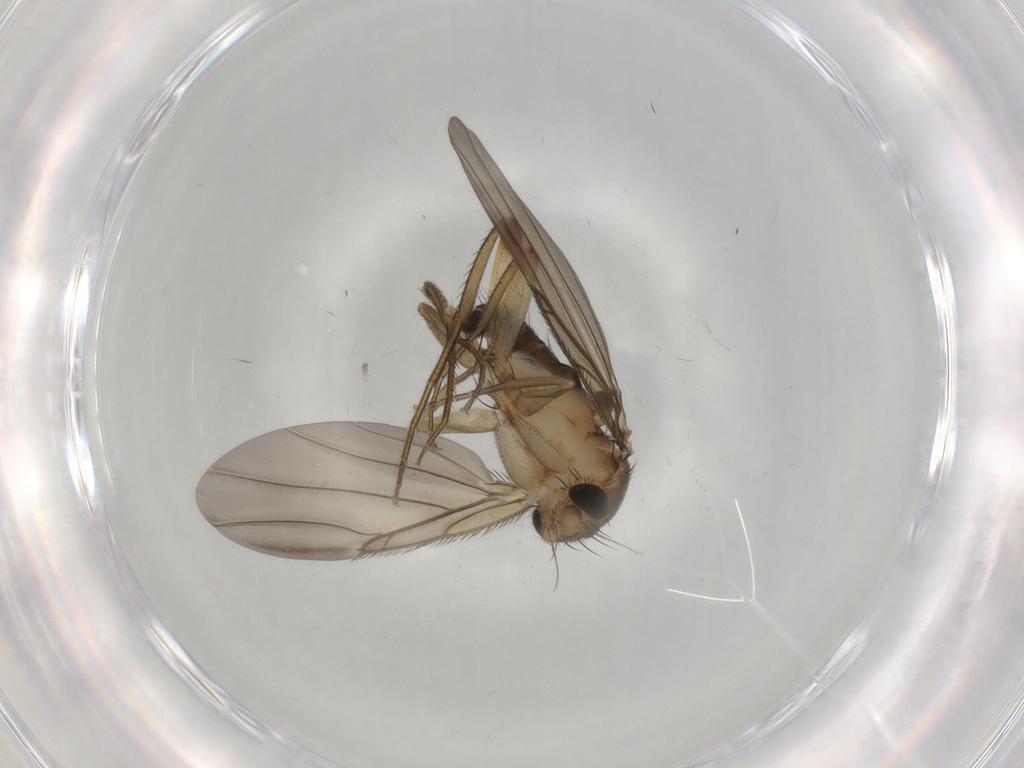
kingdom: Animalia
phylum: Arthropoda
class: Insecta
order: Diptera
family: Phoridae
